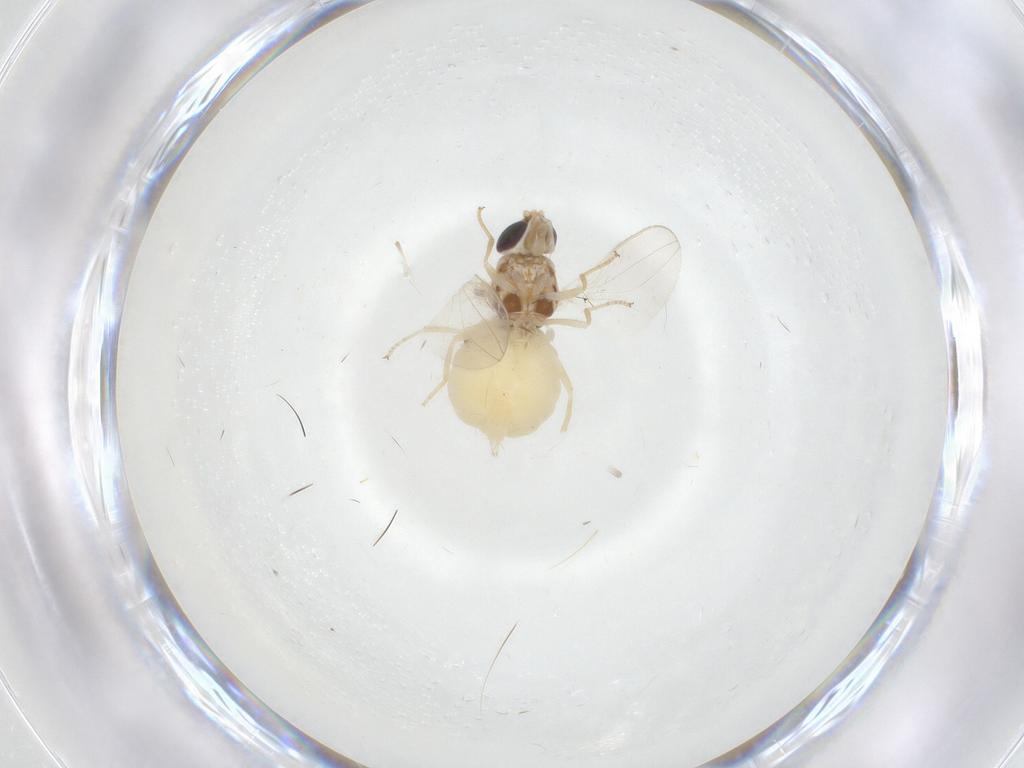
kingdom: Animalia
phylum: Arthropoda
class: Insecta
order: Diptera
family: Chloropidae
